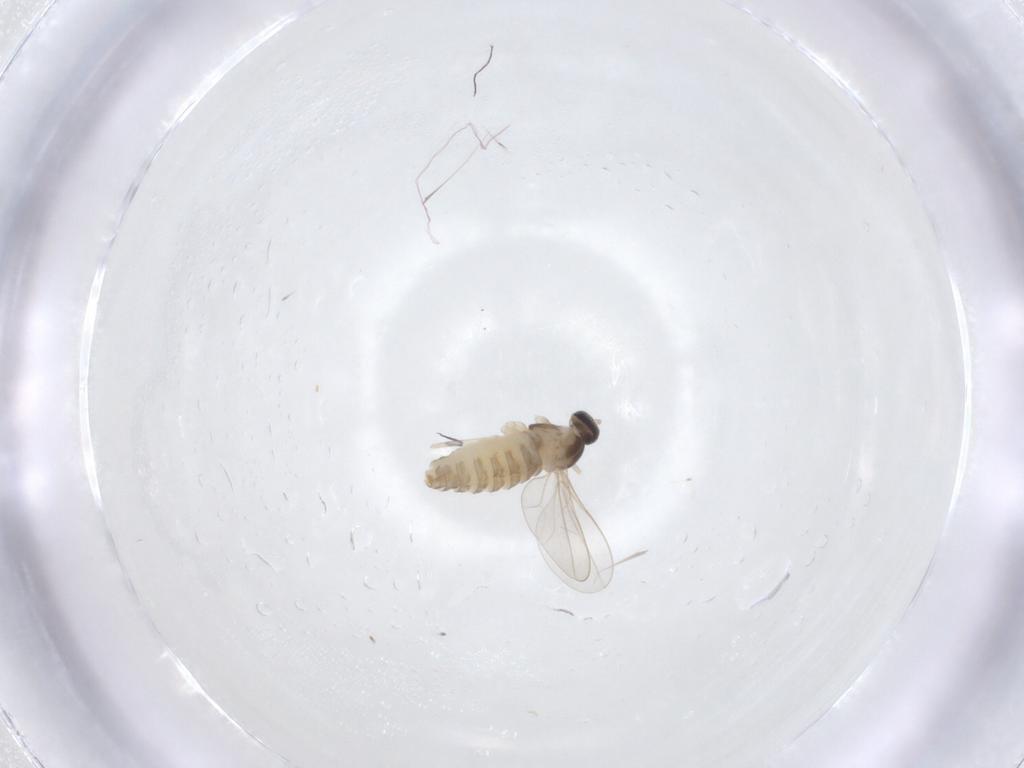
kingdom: Animalia
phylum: Arthropoda
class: Insecta
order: Diptera
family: Cecidomyiidae
